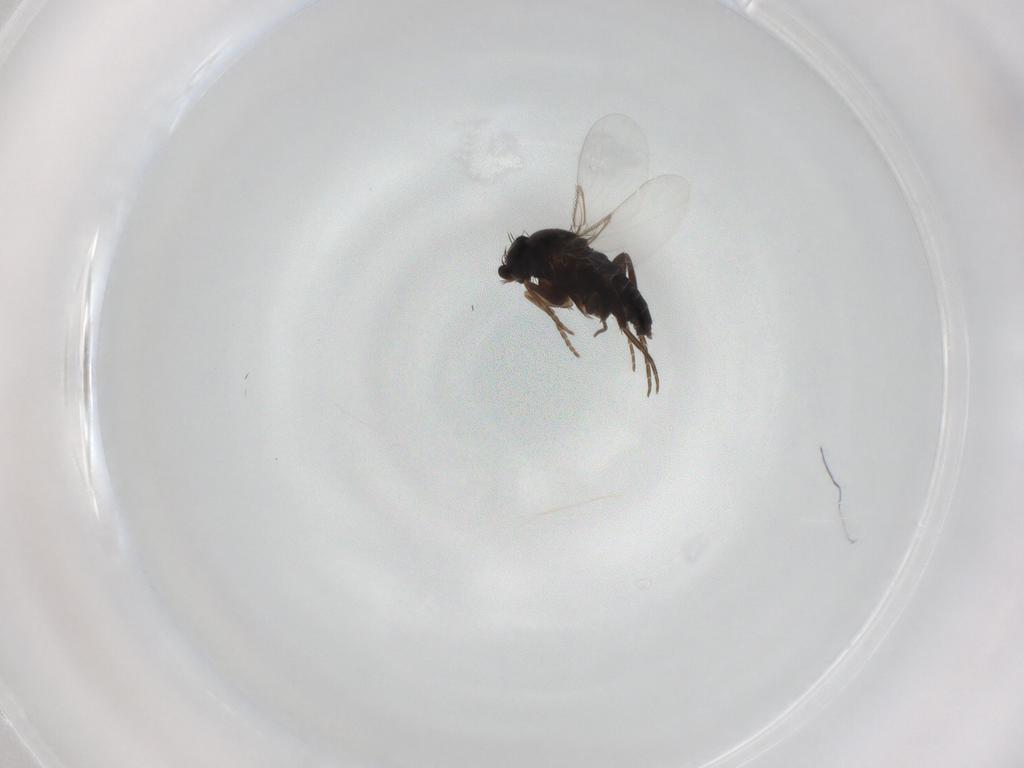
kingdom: Animalia
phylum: Arthropoda
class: Insecta
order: Diptera
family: Phoridae
